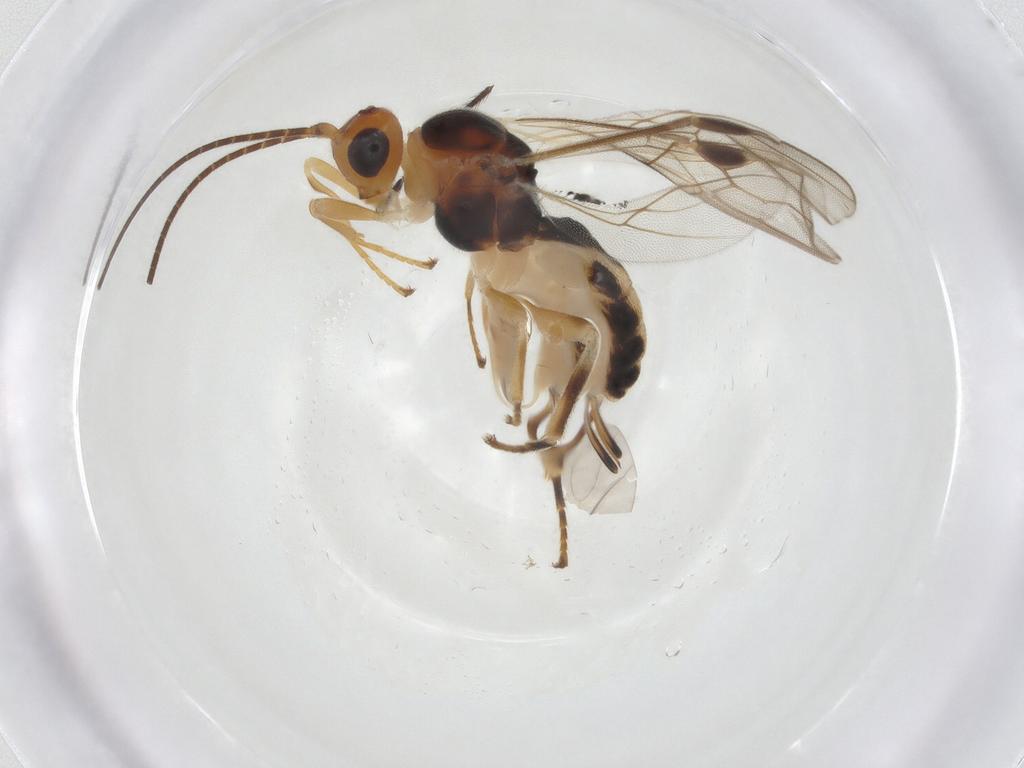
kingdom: Animalia
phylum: Arthropoda
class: Insecta
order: Hymenoptera
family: Braconidae
